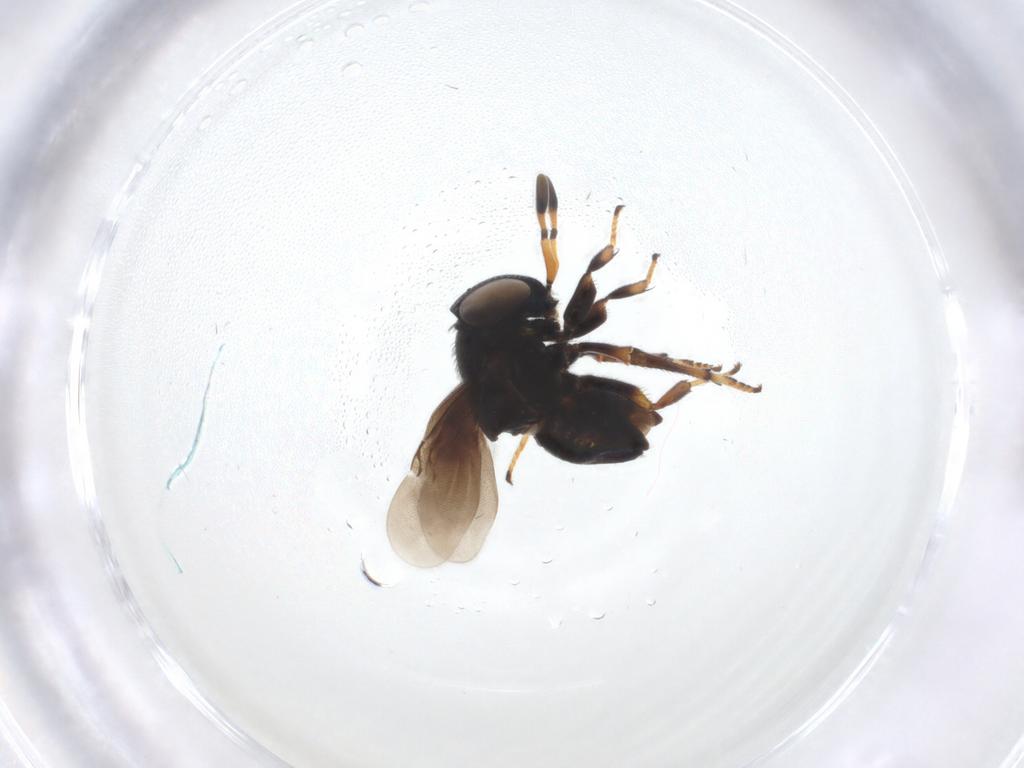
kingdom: Animalia
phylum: Arthropoda
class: Insecta
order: Hymenoptera
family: Encyrtidae
